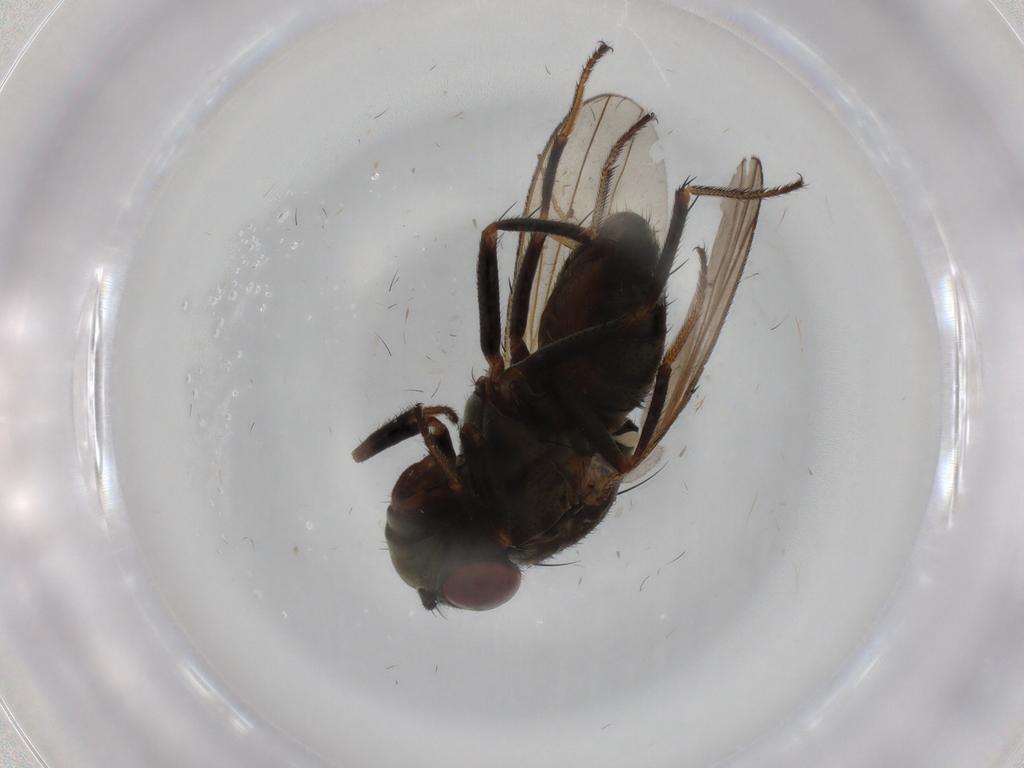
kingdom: Animalia
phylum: Arthropoda
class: Insecta
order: Diptera
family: Ephydridae
